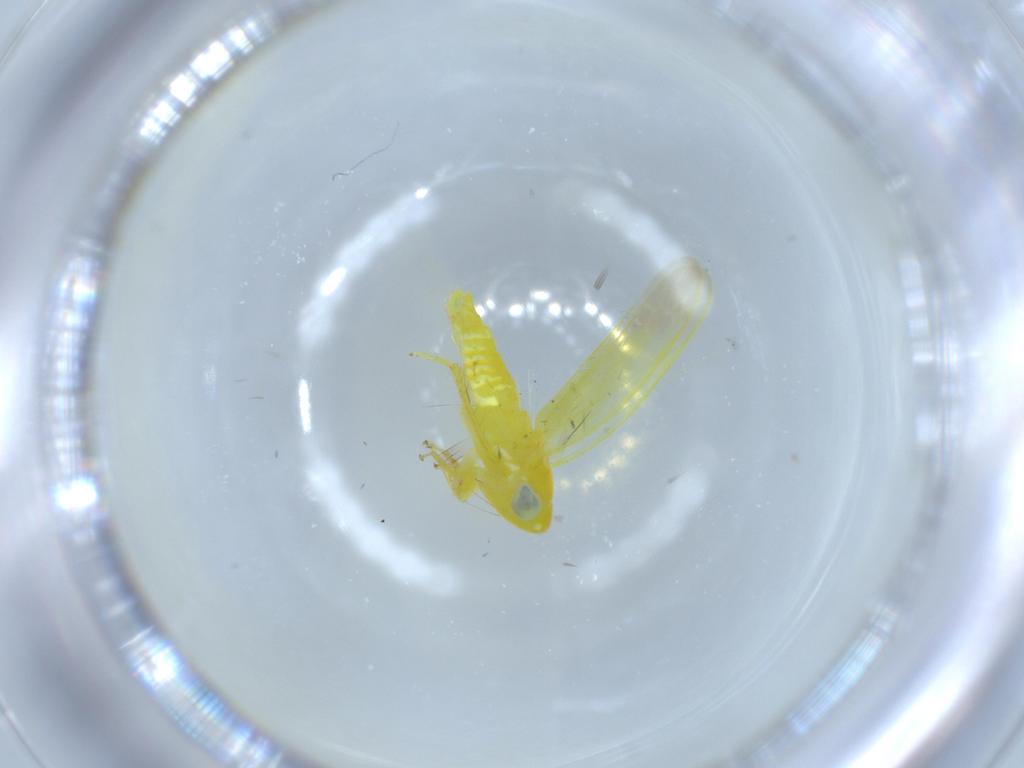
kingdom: Animalia
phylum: Arthropoda
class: Insecta
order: Hemiptera
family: Cicadellidae
